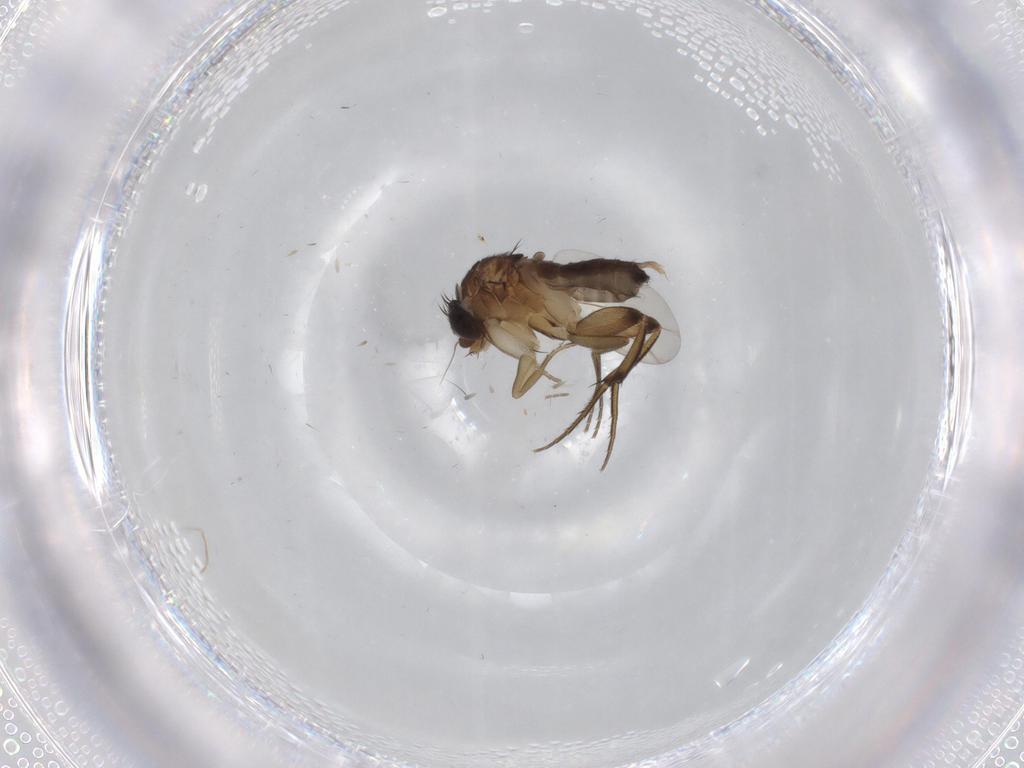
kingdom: Animalia
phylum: Arthropoda
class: Insecta
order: Diptera
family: Phoridae
